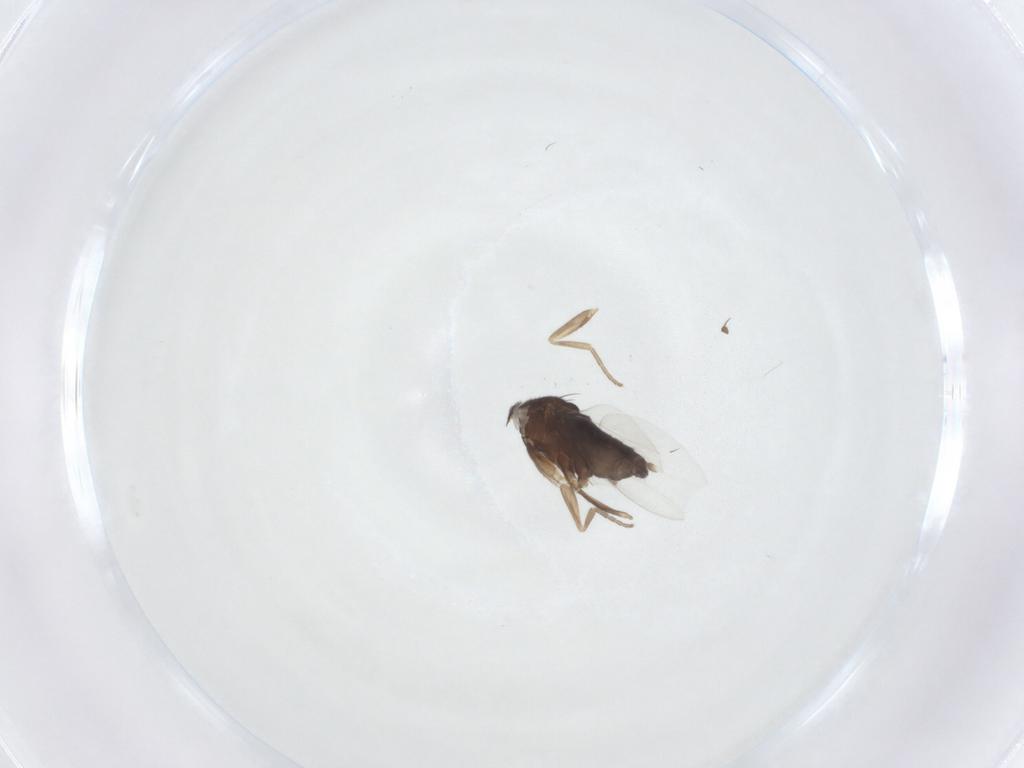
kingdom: Animalia
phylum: Arthropoda
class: Insecta
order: Diptera
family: Phoridae
